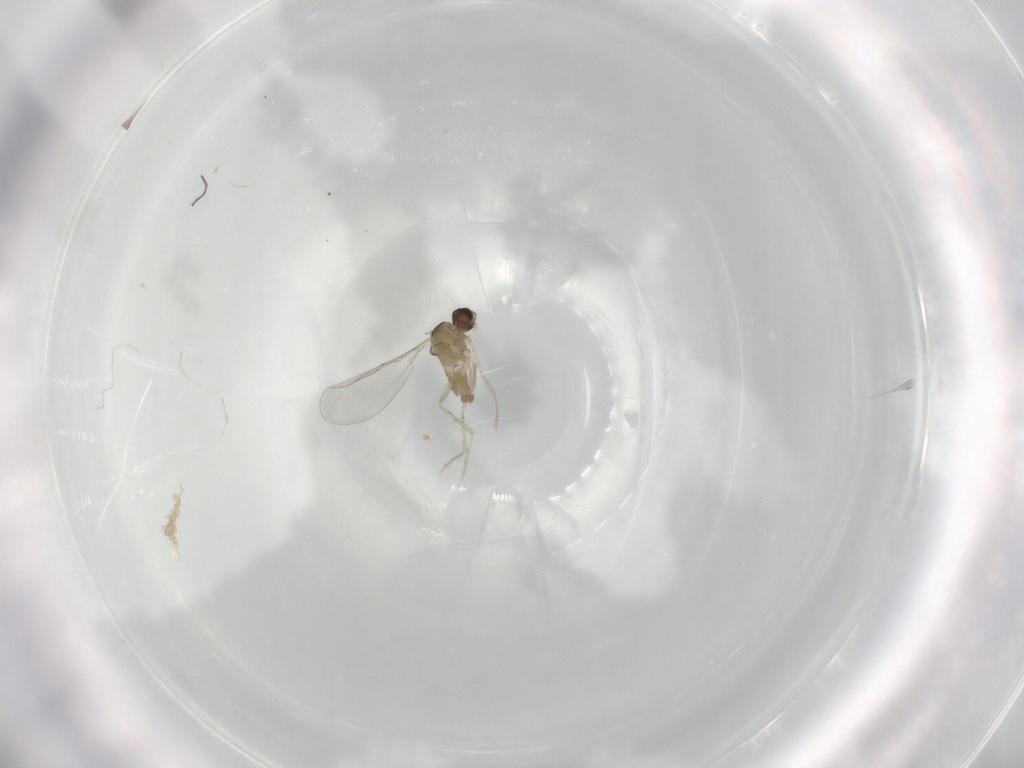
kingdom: Animalia
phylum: Arthropoda
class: Insecta
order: Diptera
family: Cecidomyiidae
